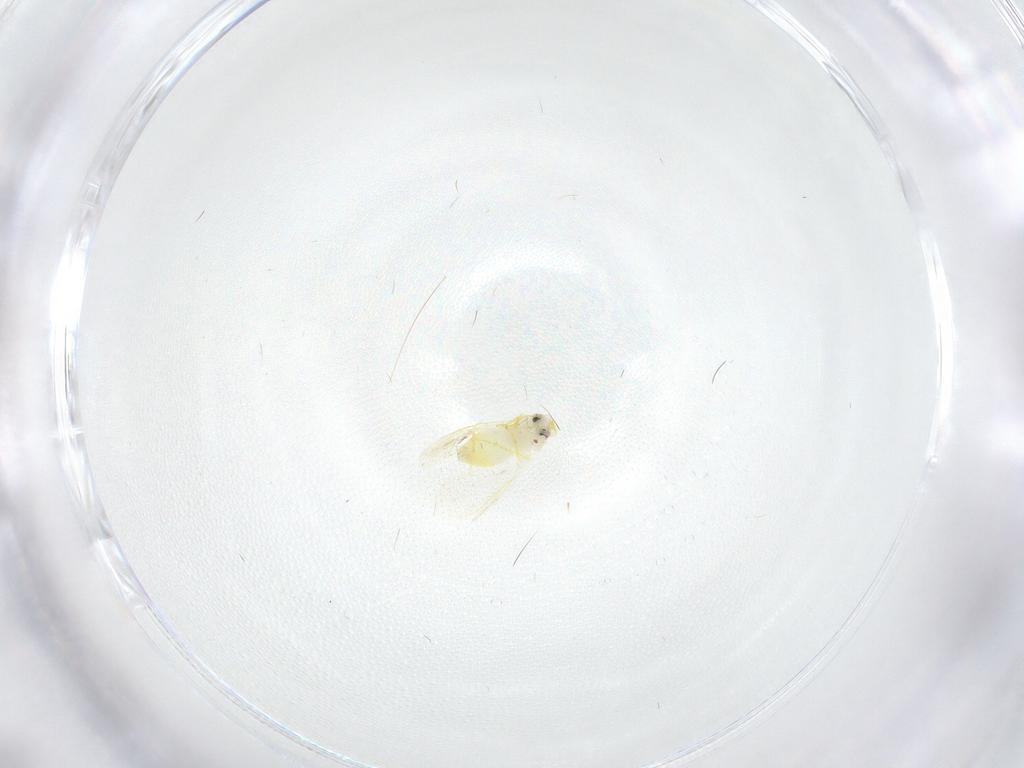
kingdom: Animalia
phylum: Arthropoda
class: Insecta
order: Hemiptera
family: Aleyrodidae
